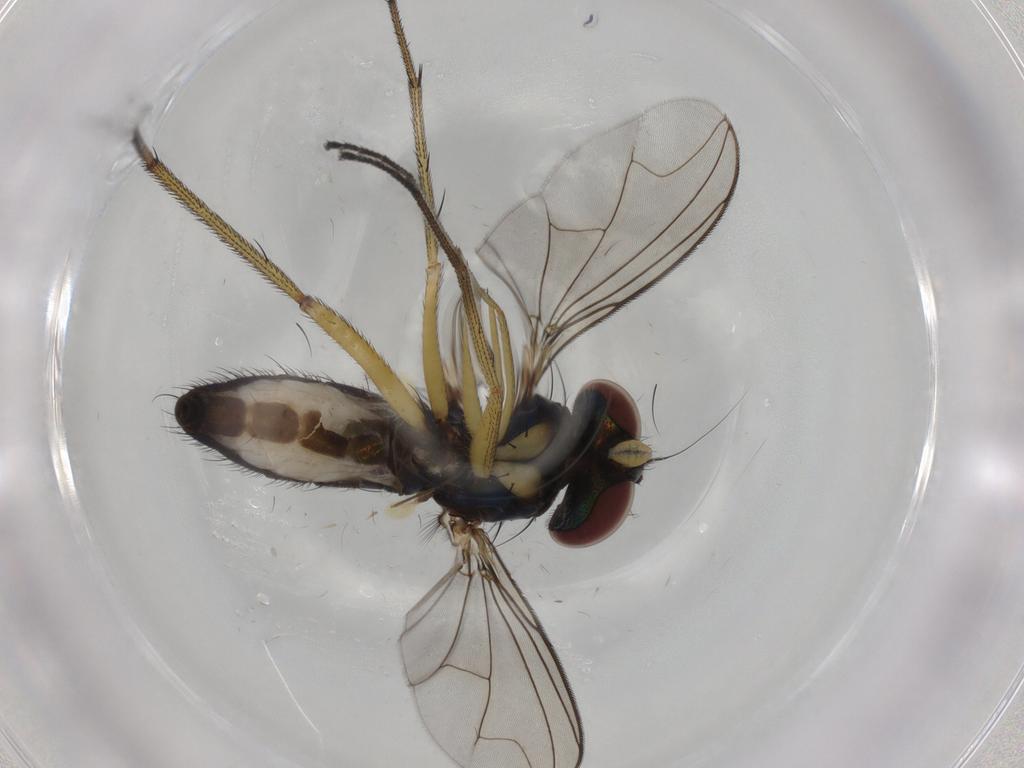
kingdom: Animalia
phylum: Arthropoda
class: Insecta
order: Diptera
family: Dolichopodidae
